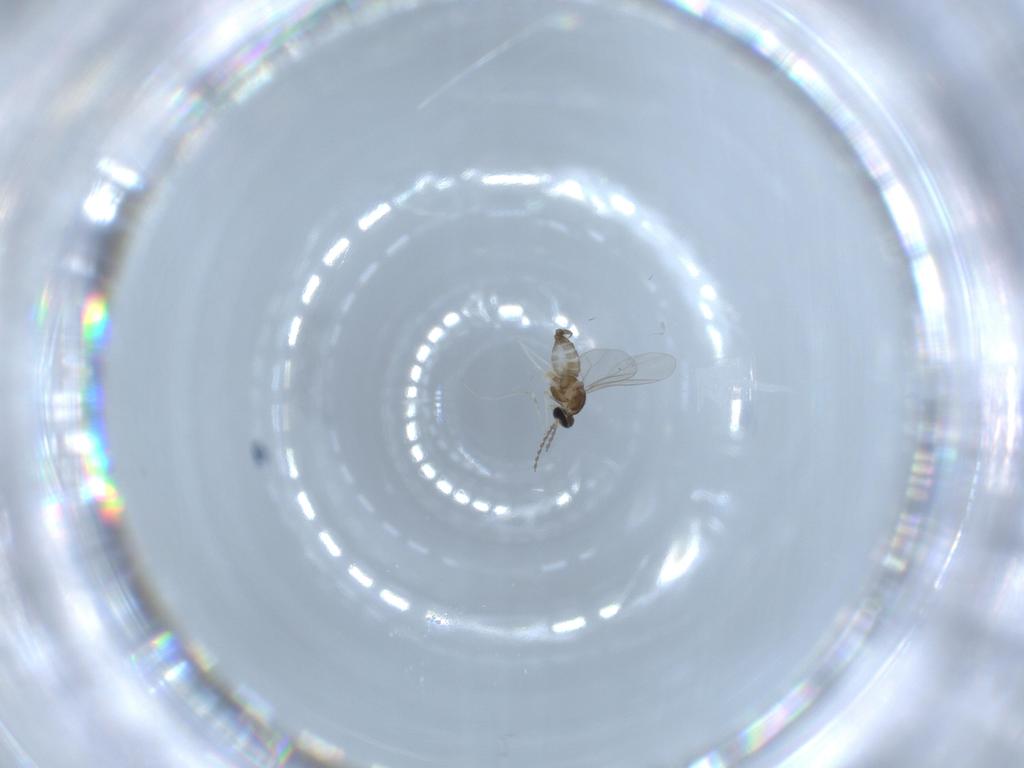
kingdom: Animalia
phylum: Arthropoda
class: Insecta
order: Diptera
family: Cecidomyiidae
